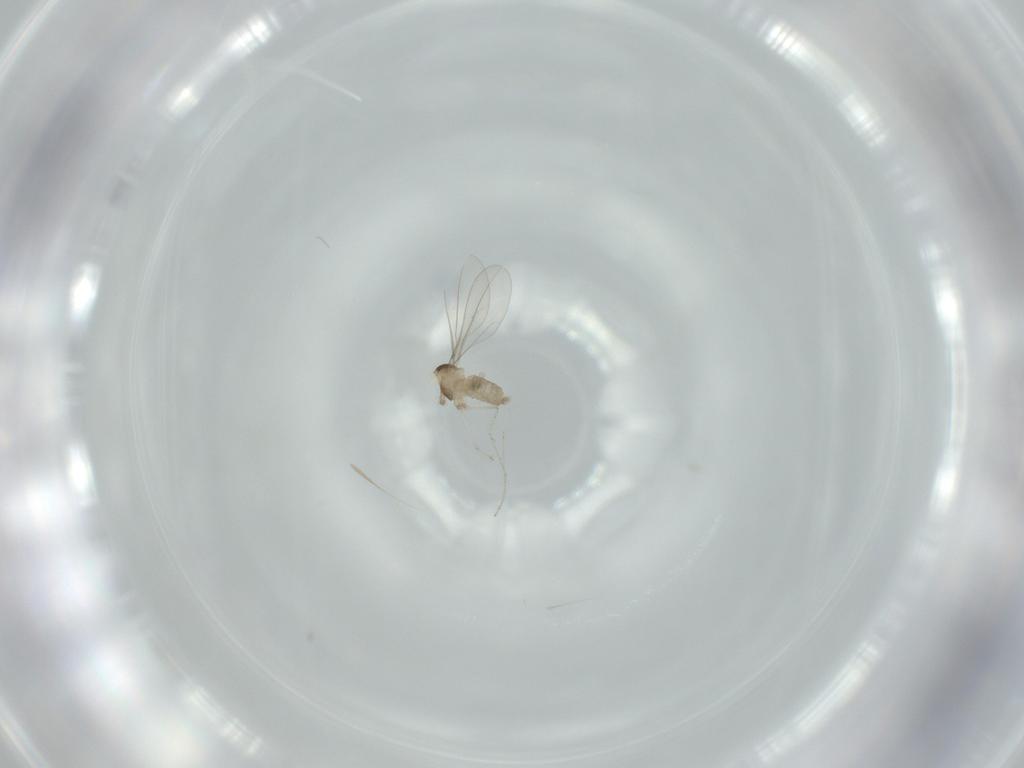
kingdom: Animalia
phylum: Arthropoda
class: Insecta
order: Diptera
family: Cecidomyiidae
